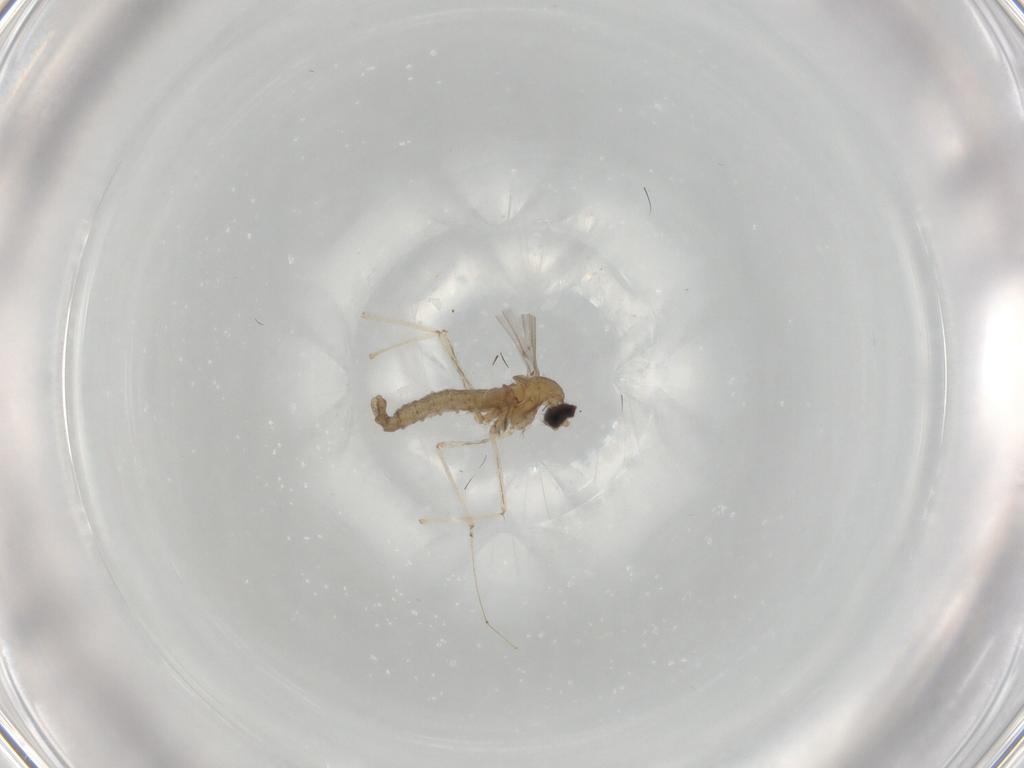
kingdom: Animalia
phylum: Arthropoda
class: Insecta
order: Diptera
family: Cecidomyiidae
